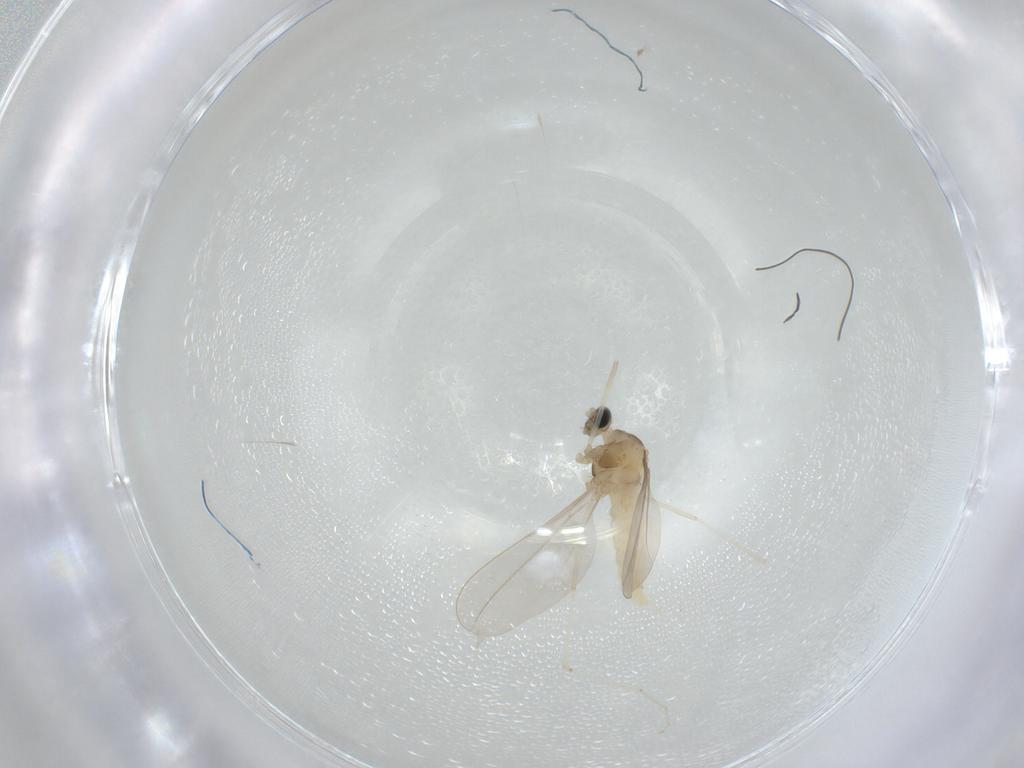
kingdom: Animalia
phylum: Arthropoda
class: Insecta
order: Diptera
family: Cecidomyiidae
